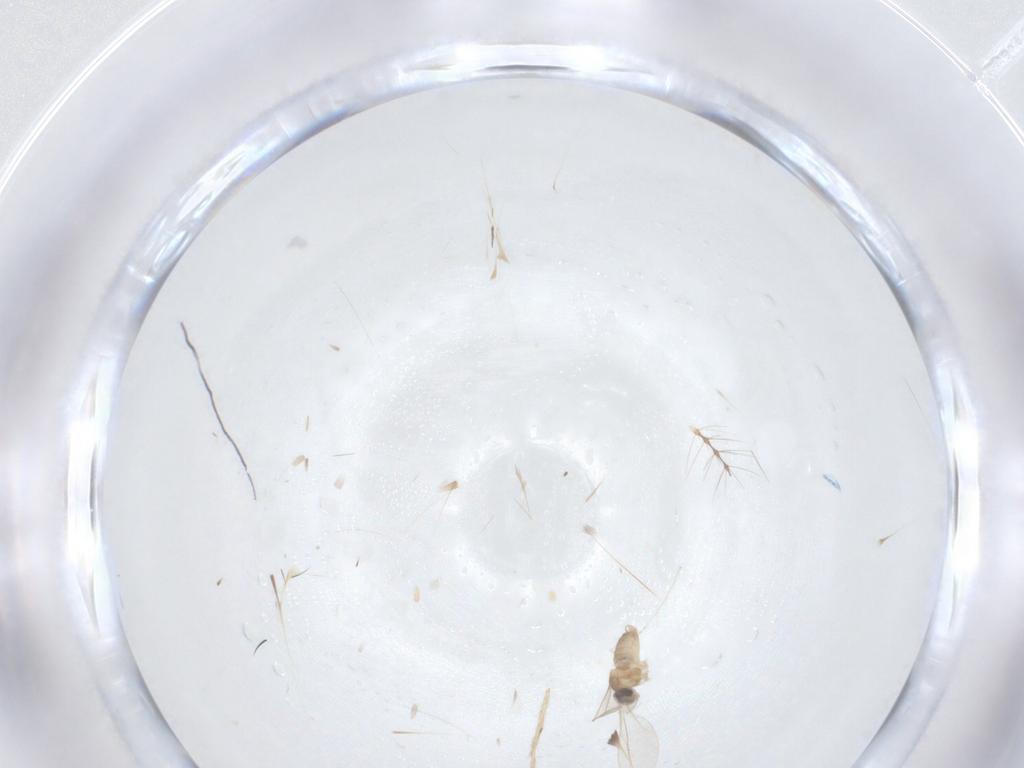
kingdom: Animalia
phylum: Arthropoda
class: Insecta
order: Diptera
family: Cecidomyiidae
